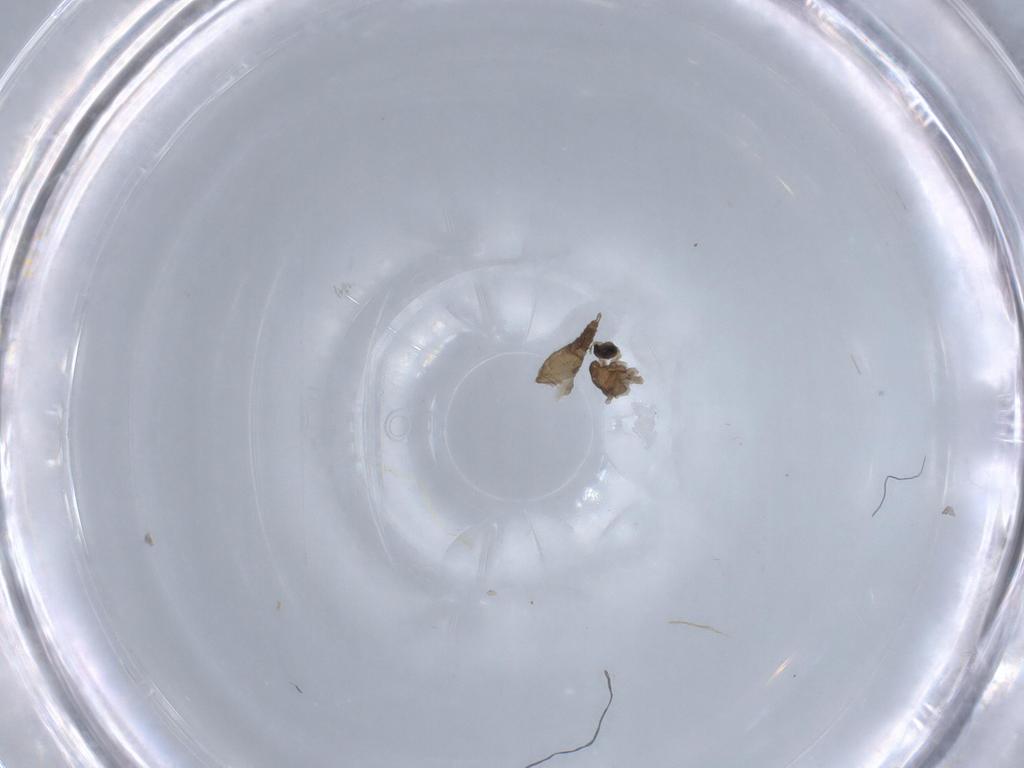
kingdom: Animalia
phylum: Arthropoda
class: Insecta
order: Diptera
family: Cecidomyiidae
